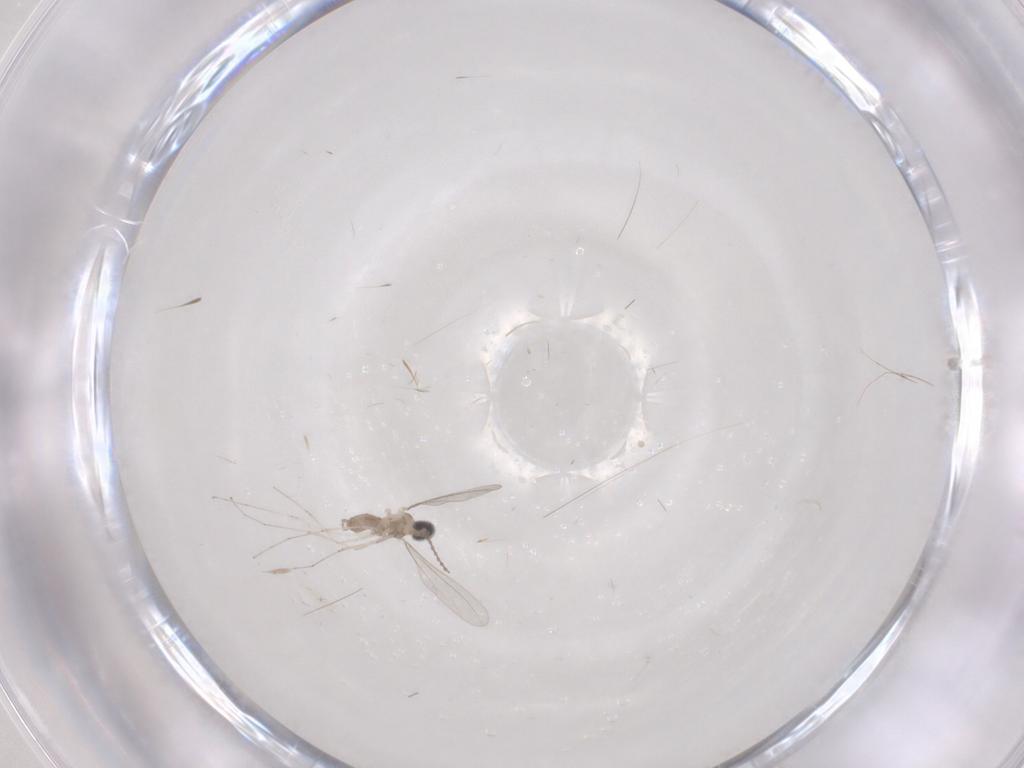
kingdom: Animalia
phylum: Arthropoda
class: Insecta
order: Diptera
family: Cecidomyiidae
